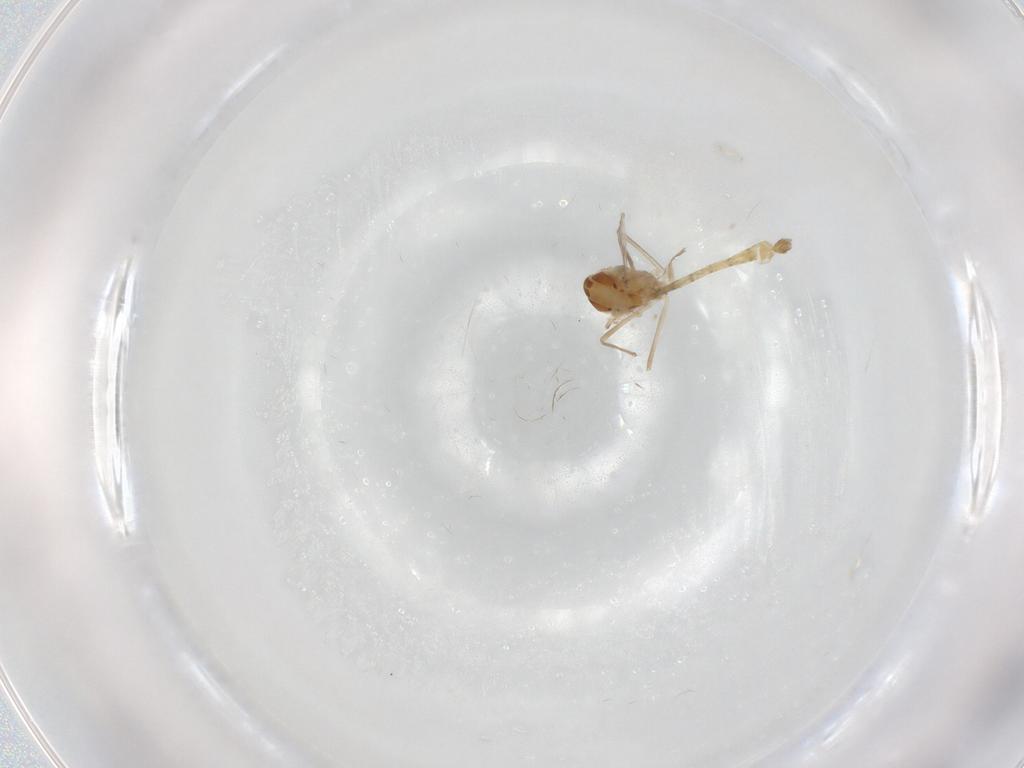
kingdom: Animalia
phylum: Arthropoda
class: Insecta
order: Diptera
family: Chironomidae
